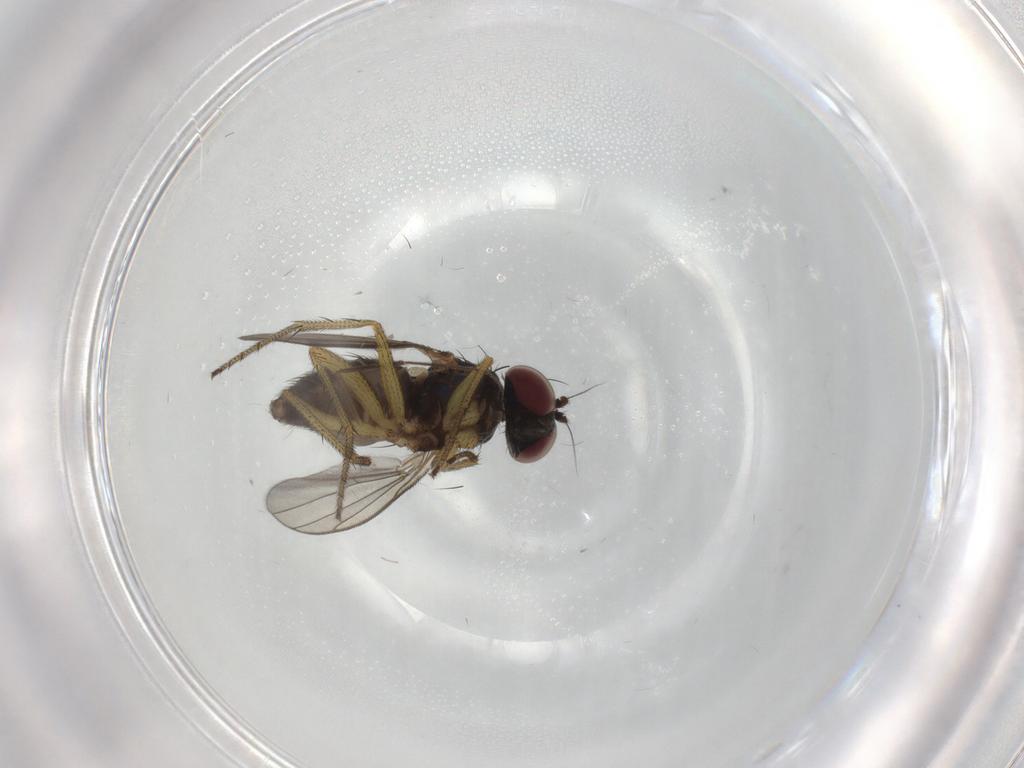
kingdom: Animalia
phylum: Arthropoda
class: Insecta
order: Diptera
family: Dolichopodidae
